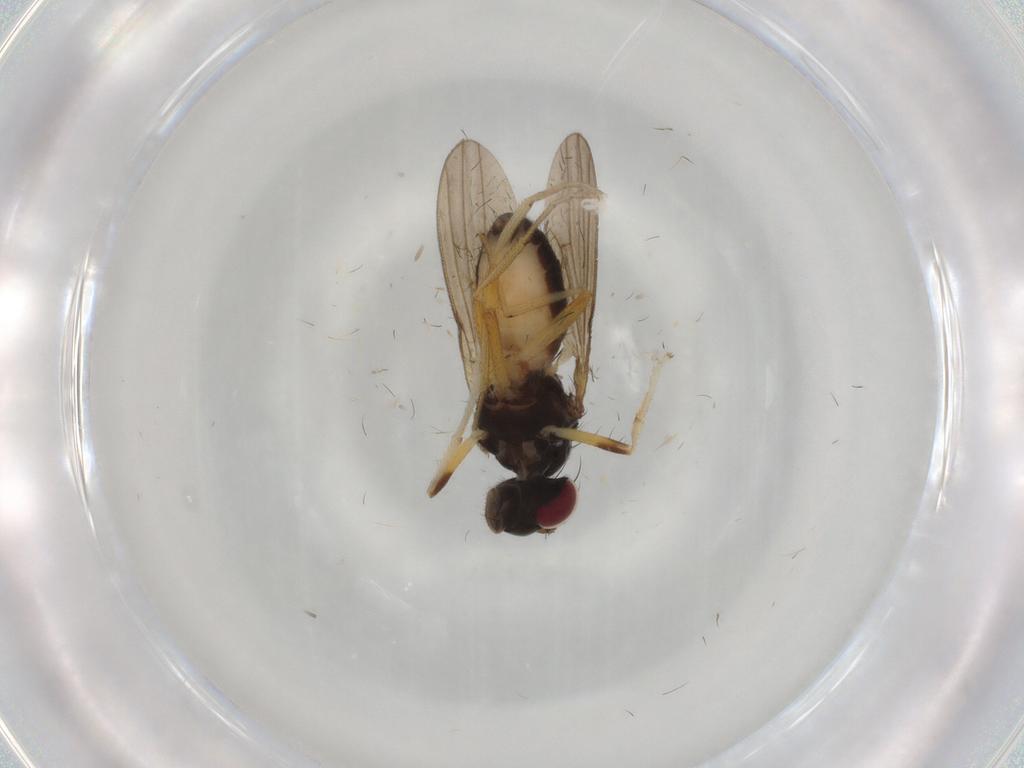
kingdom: Animalia
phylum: Arthropoda
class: Insecta
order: Diptera
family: Lauxaniidae
